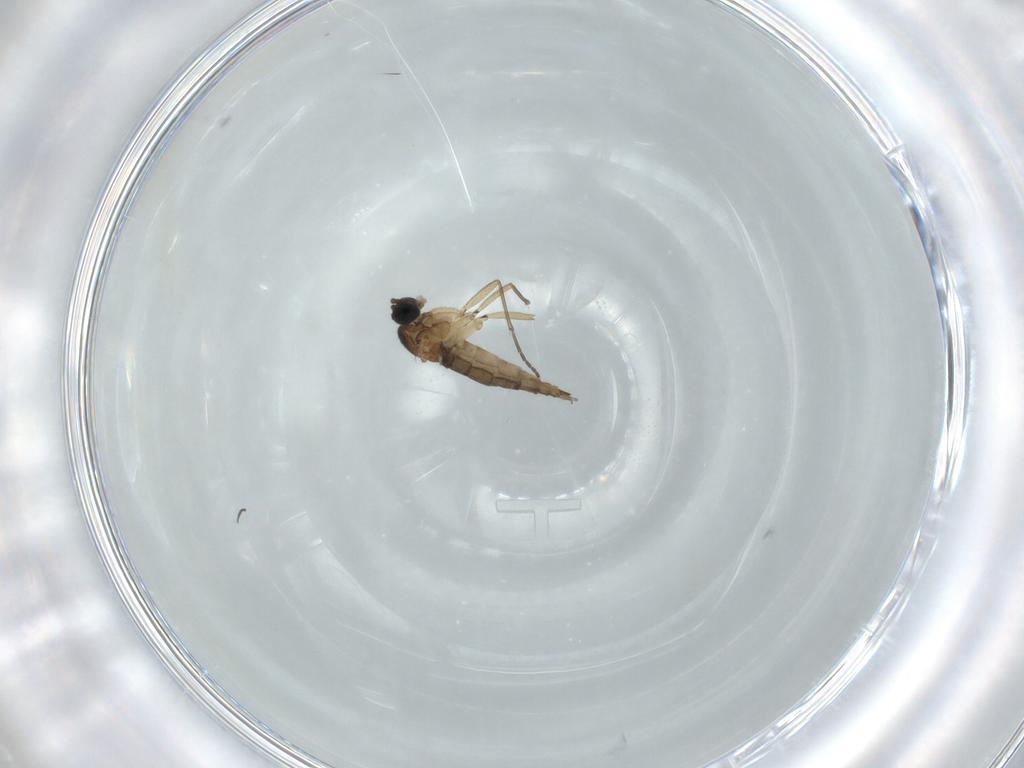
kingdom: Animalia
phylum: Arthropoda
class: Insecta
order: Diptera
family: Sciaridae
